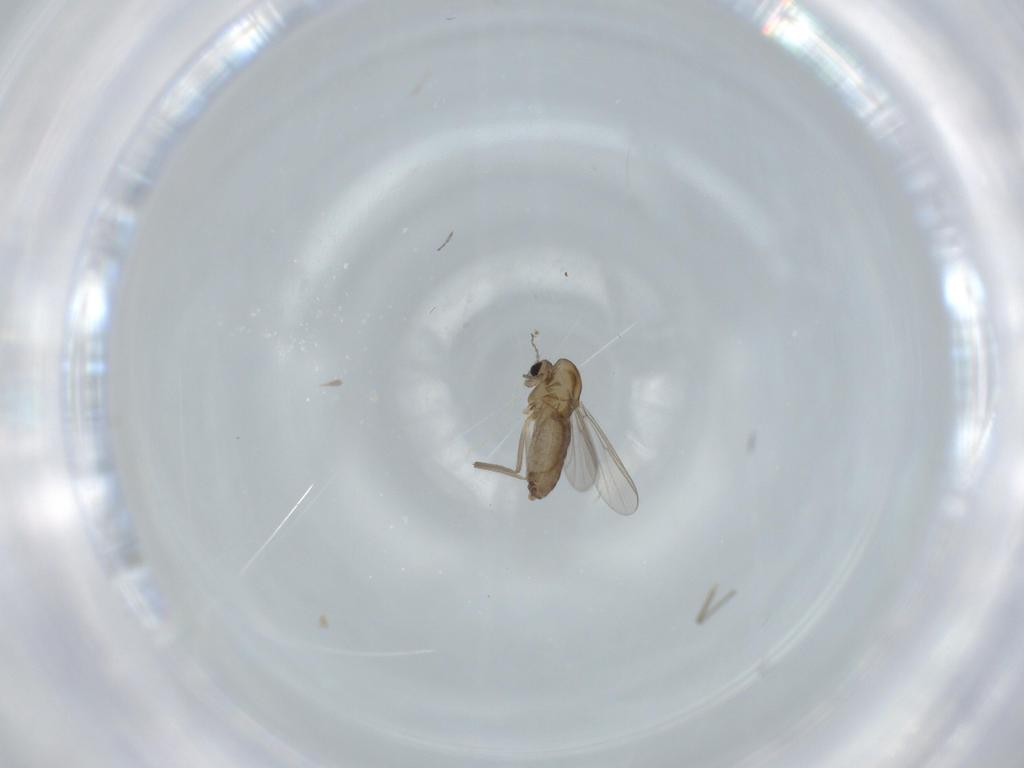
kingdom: Animalia
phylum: Arthropoda
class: Insecta
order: Diptera
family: Chironomidae
